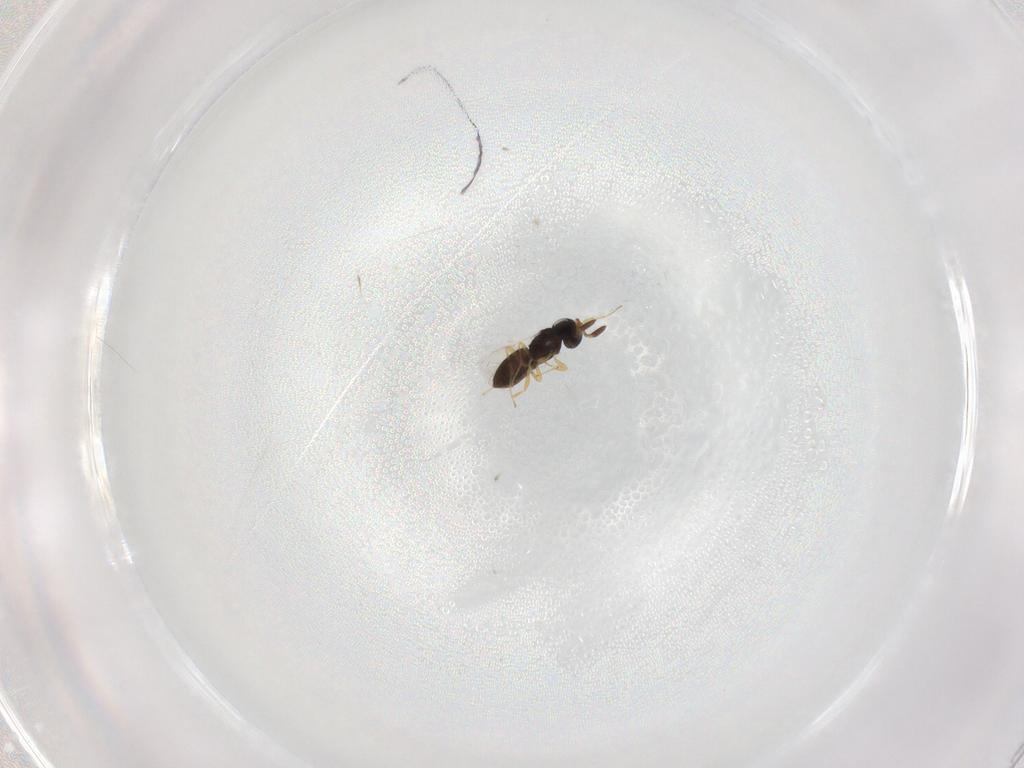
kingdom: Animalia
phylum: Arthropoda
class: Insecta
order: Hymenoptera
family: Scelionidae
